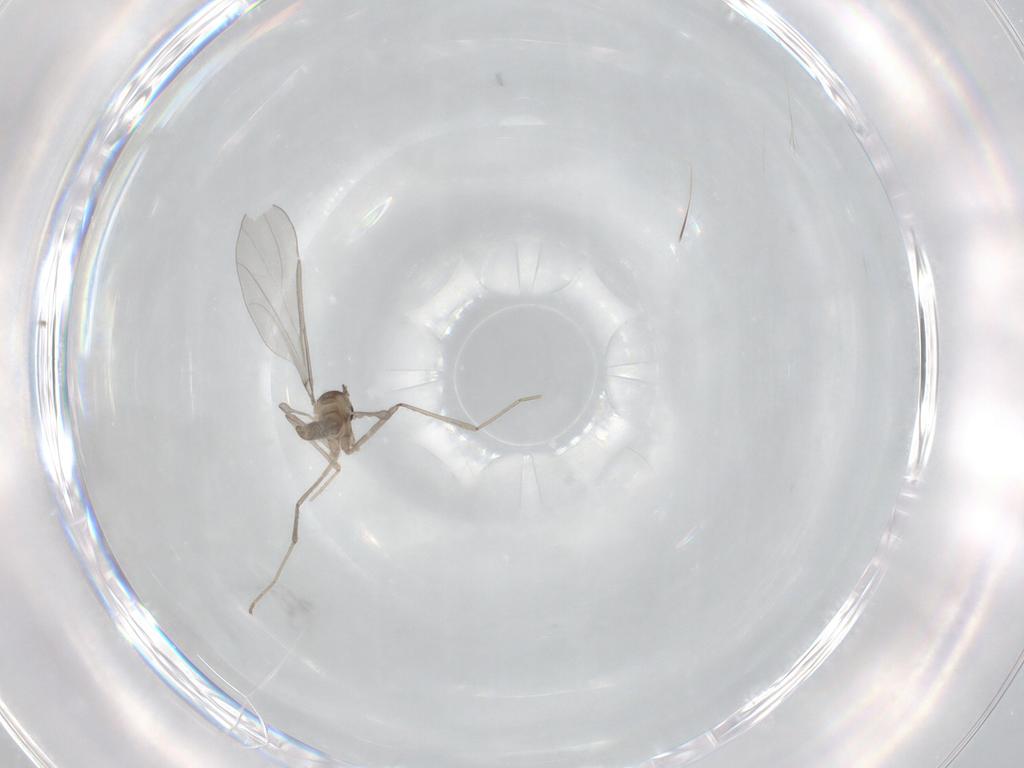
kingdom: Animalia
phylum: Arthropoda
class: Insecta
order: Diptera
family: Cecidomyiidae
